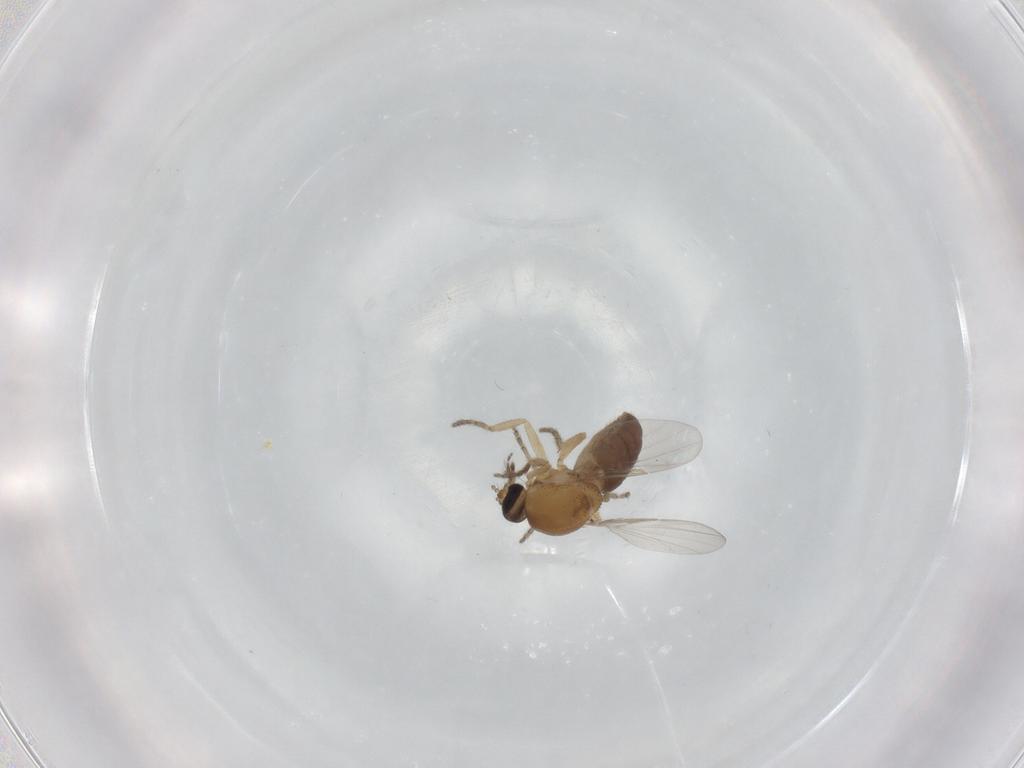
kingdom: Animalia
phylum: Arthropoda
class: Insecta
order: Diptera
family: Ceratopogonidae
